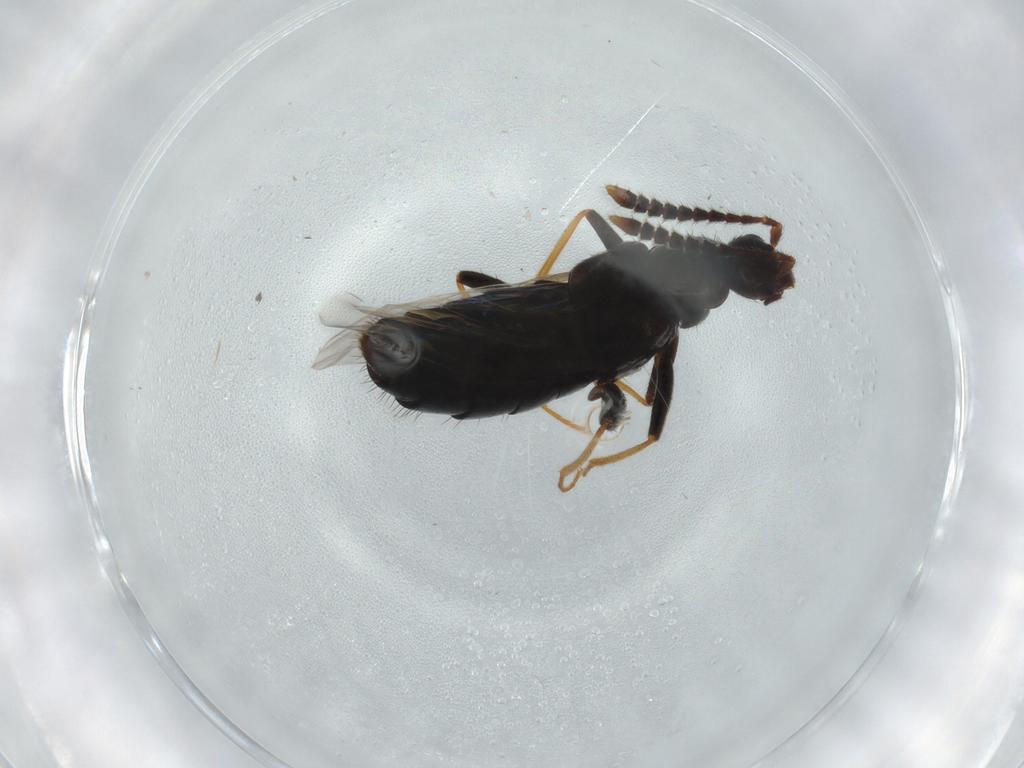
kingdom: Animalia
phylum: Arthropoda
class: Insecta
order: Coleoptera
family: Staphylinidae
